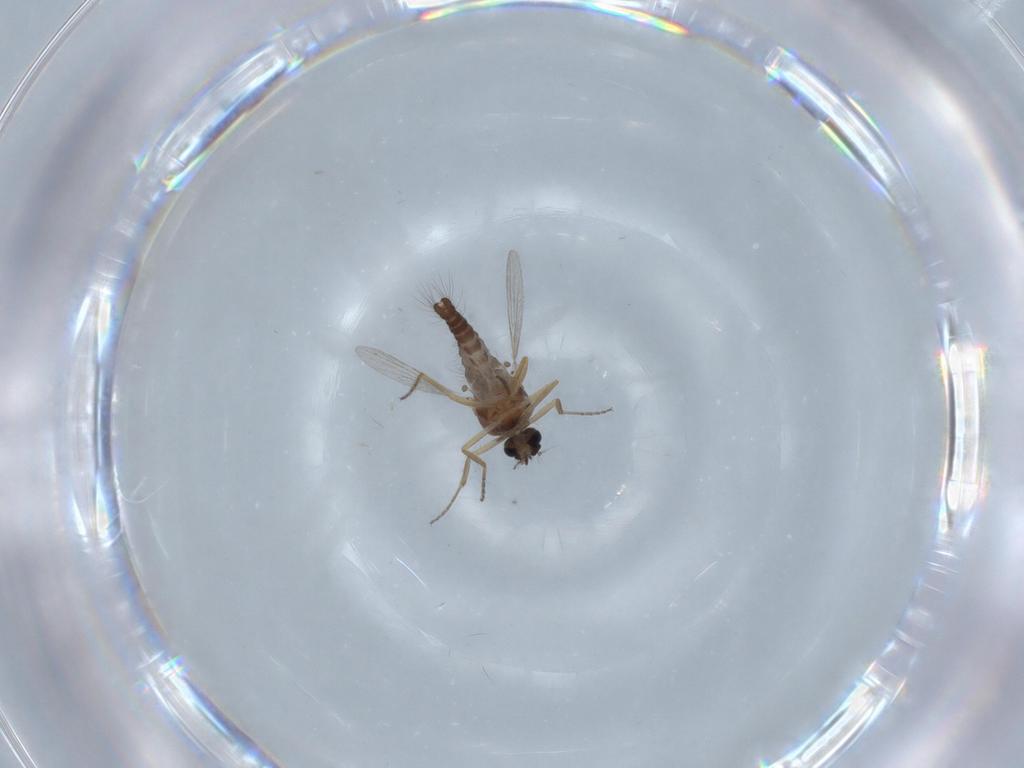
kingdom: Animalia
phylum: Arthropoda
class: Insecta
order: Diptera
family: Ceratopogonidae
